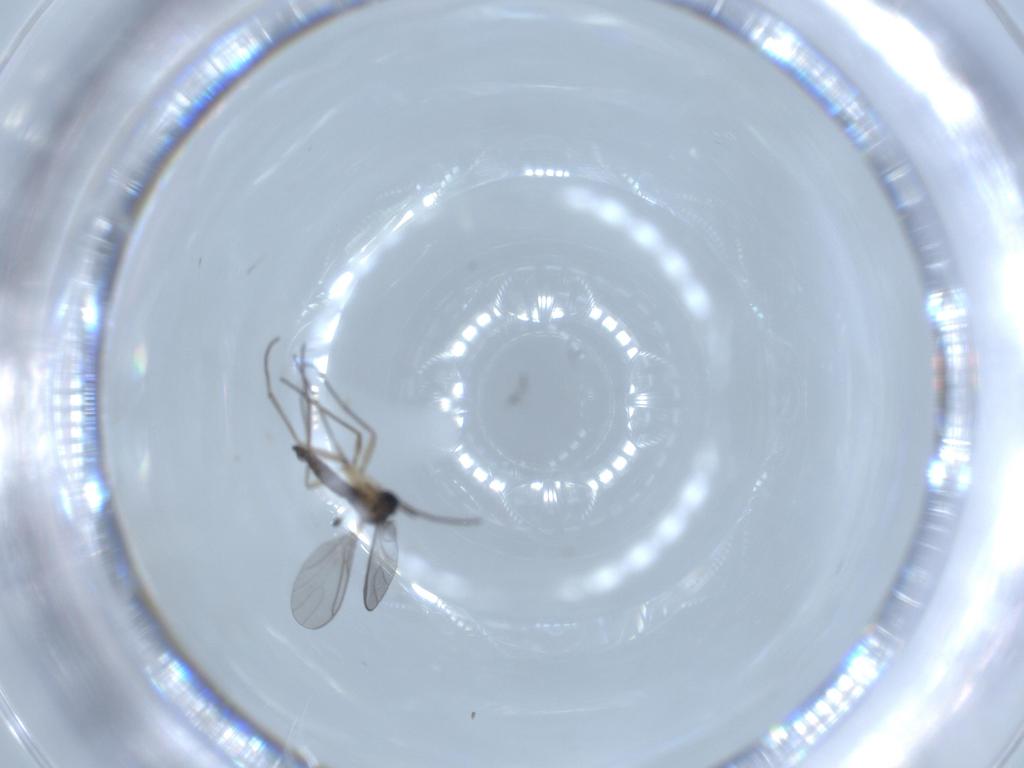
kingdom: Animalia
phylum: Arthropoda
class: Insecta
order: Diptera
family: Sciaridae
